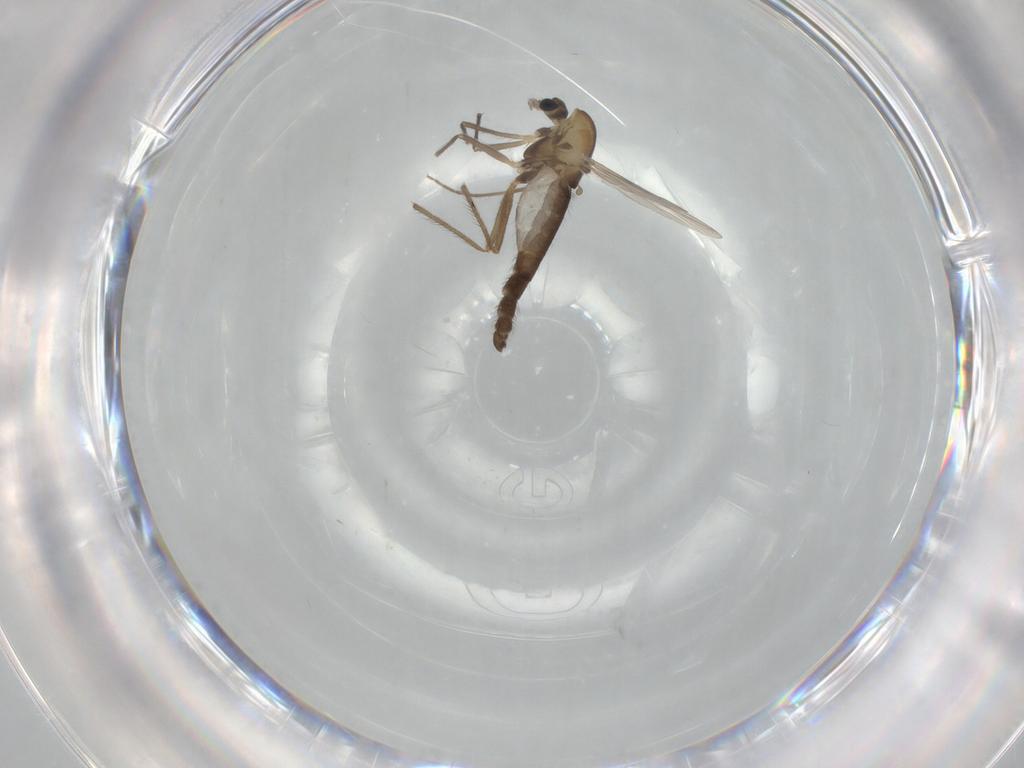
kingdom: Animalia
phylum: Arthropoda
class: Insecta
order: Diptera
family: Chironomidae
